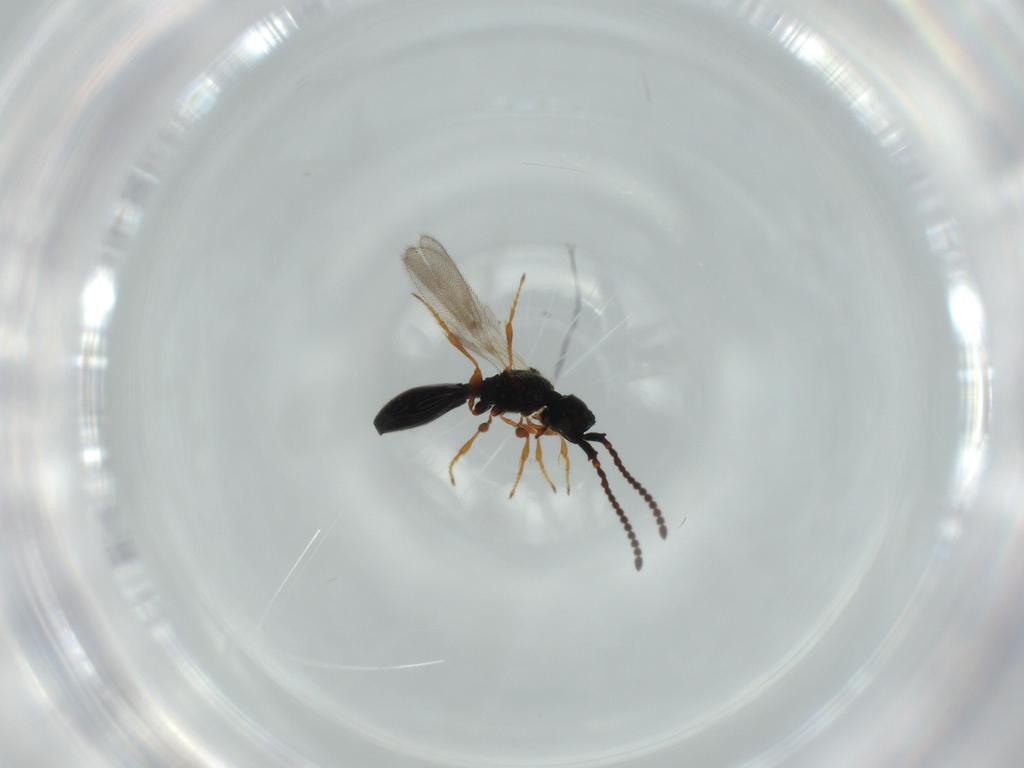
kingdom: Animalia
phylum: Arthropoda
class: Insecta
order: Hymenoptera
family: Diapriidae
